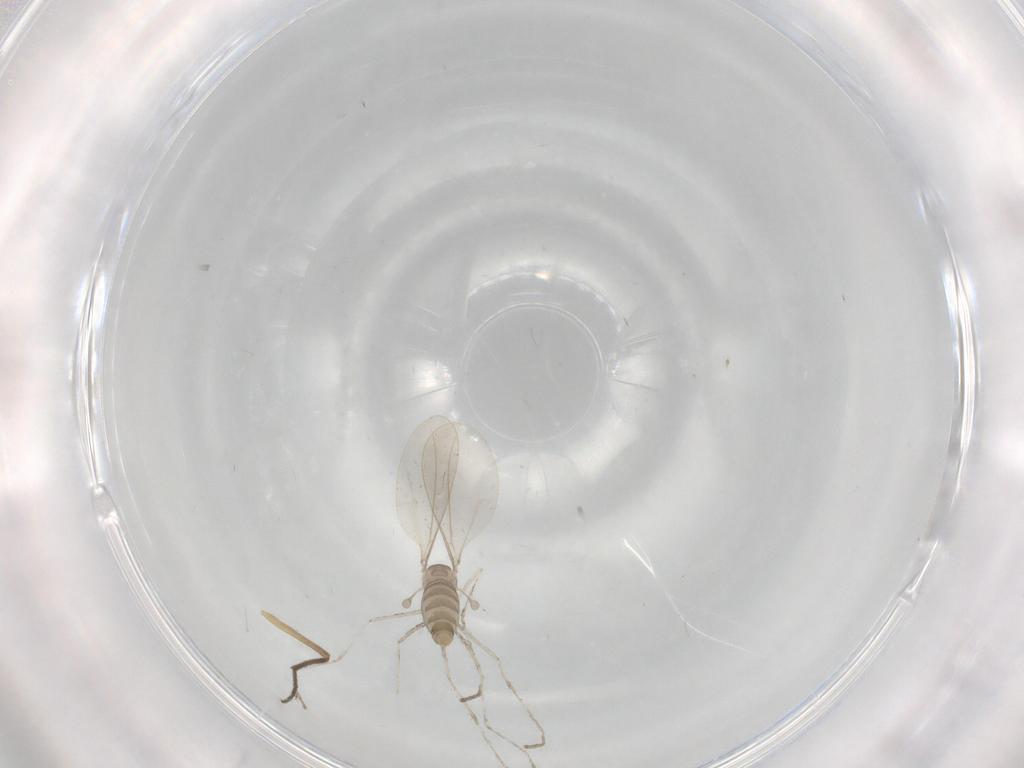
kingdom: Animalia
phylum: Arthropoda
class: Insecta
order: Diptera
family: Cecidomyiidae
